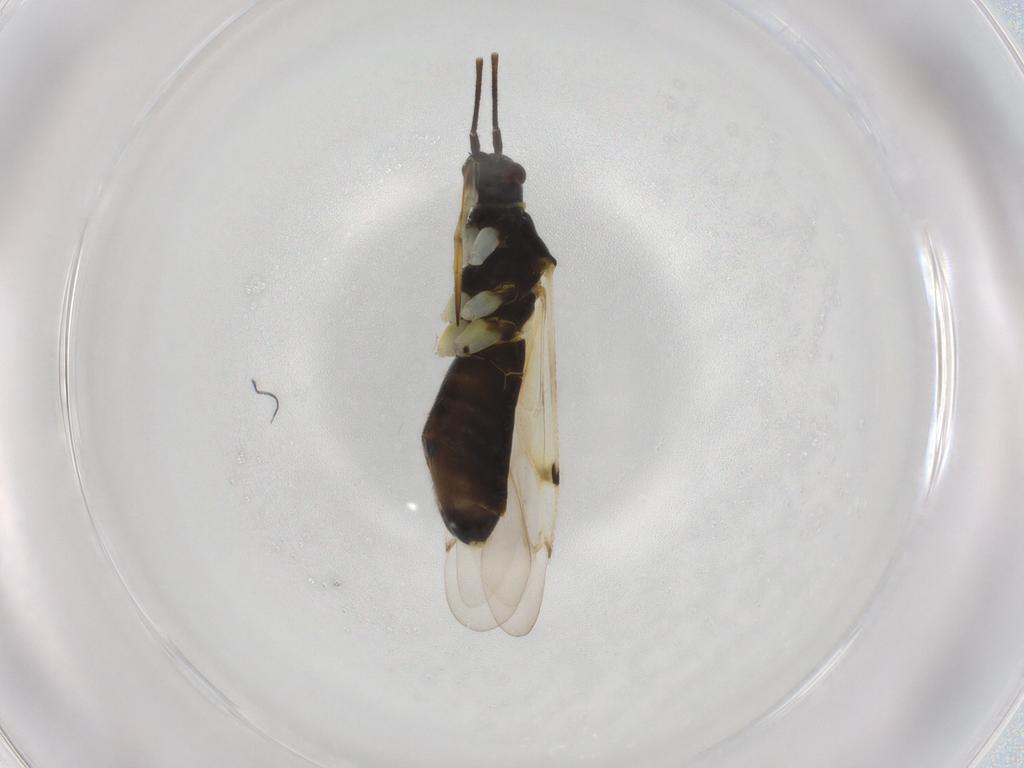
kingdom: Animalia
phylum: Arthropoda
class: Insecta
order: Hemiptera
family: Miridae
